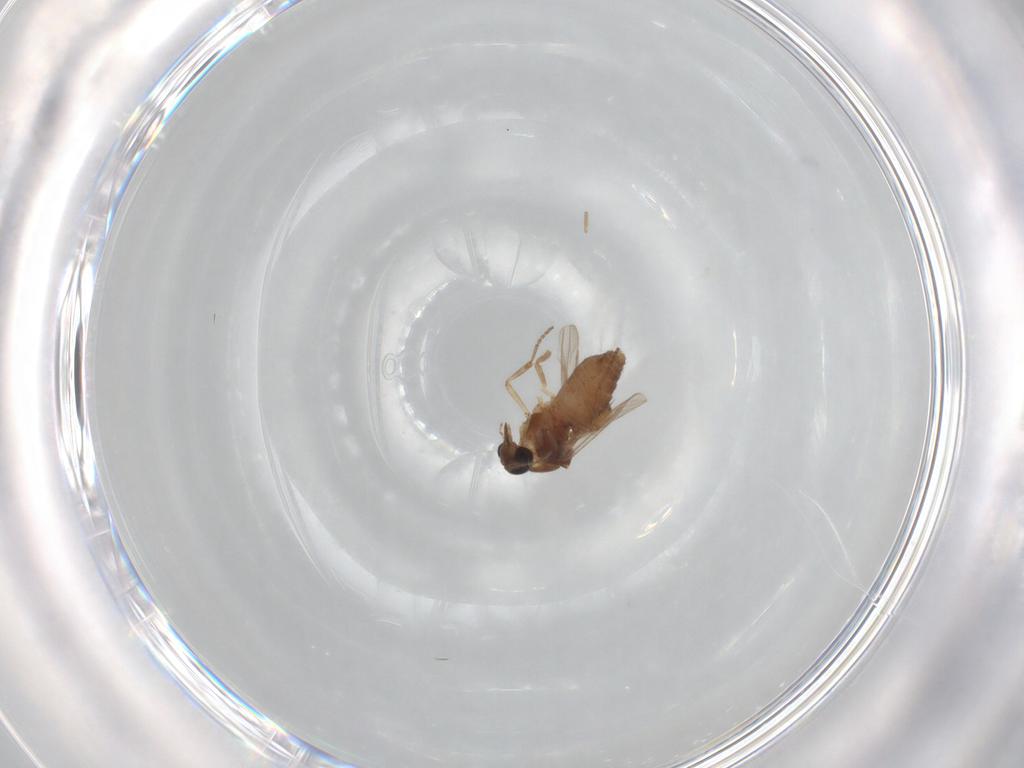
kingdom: Animalia
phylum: Arthropoda
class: Insecta
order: Diptera
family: Ceratopogonidae
